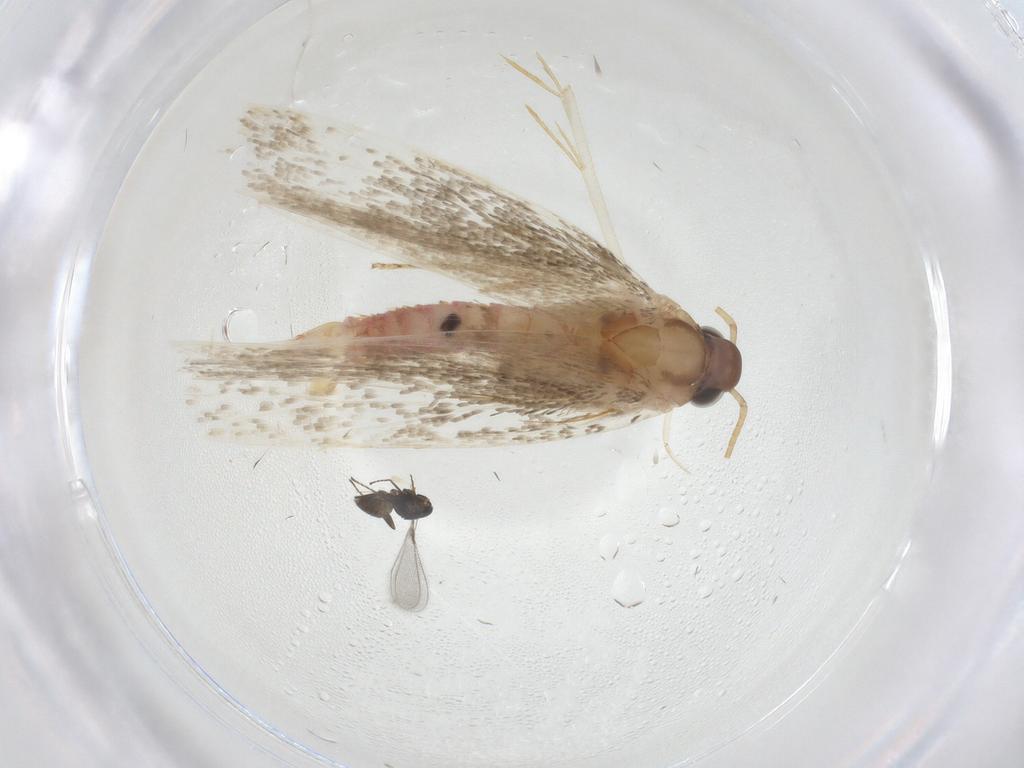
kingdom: Animalia
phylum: Arthropoda
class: Insecta
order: Lepidoptera
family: Crambidae
